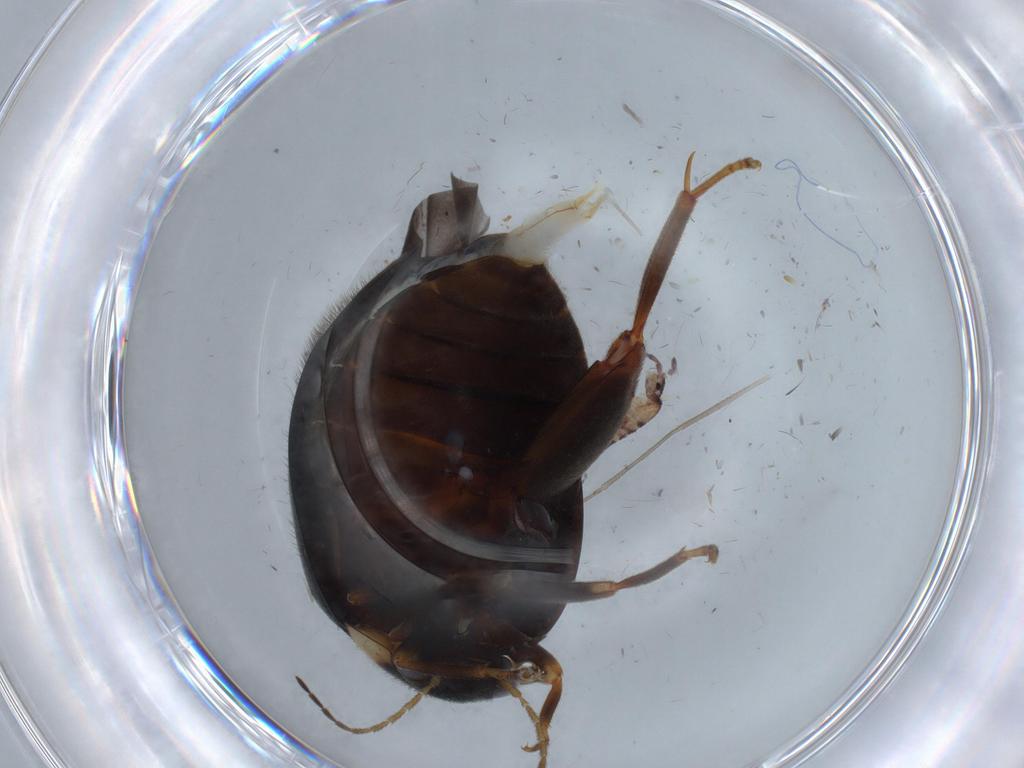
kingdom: Animalia
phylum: Arthropoda
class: Insecta
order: Coleoptera
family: Scirtidae
